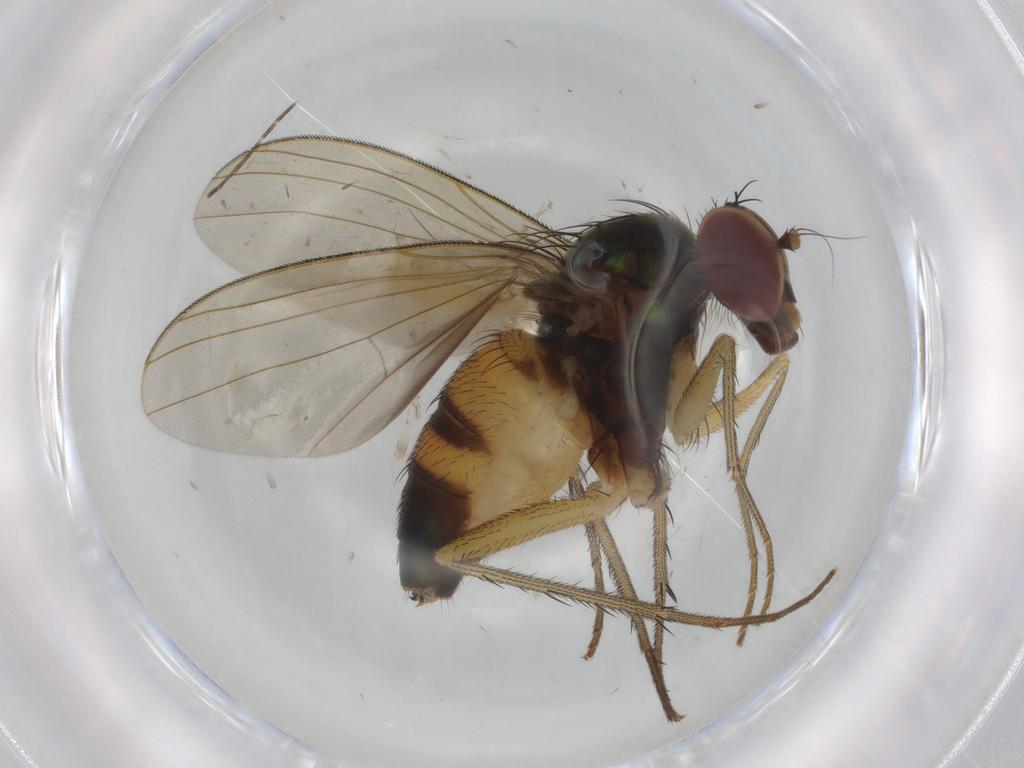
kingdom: Animalia
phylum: Arthropoda
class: Insecta
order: Diptera
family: Dolichopodidae
